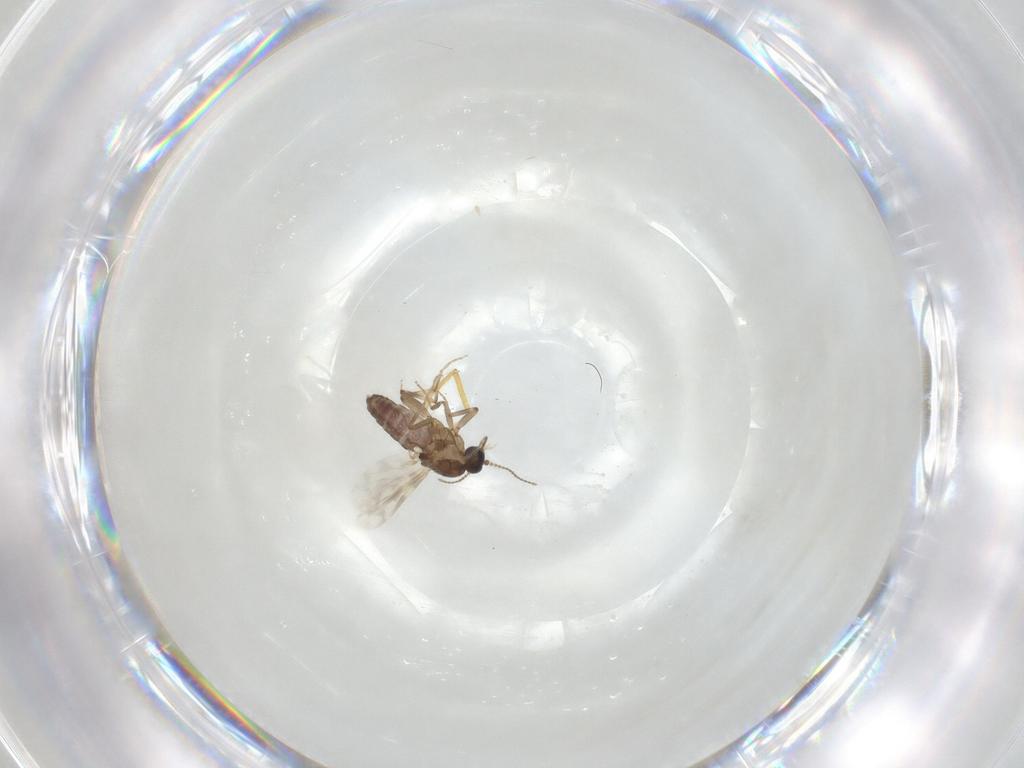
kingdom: Animalia
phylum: Arthropoda
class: Insecta
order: Diptera
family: Ceratopogonidae
